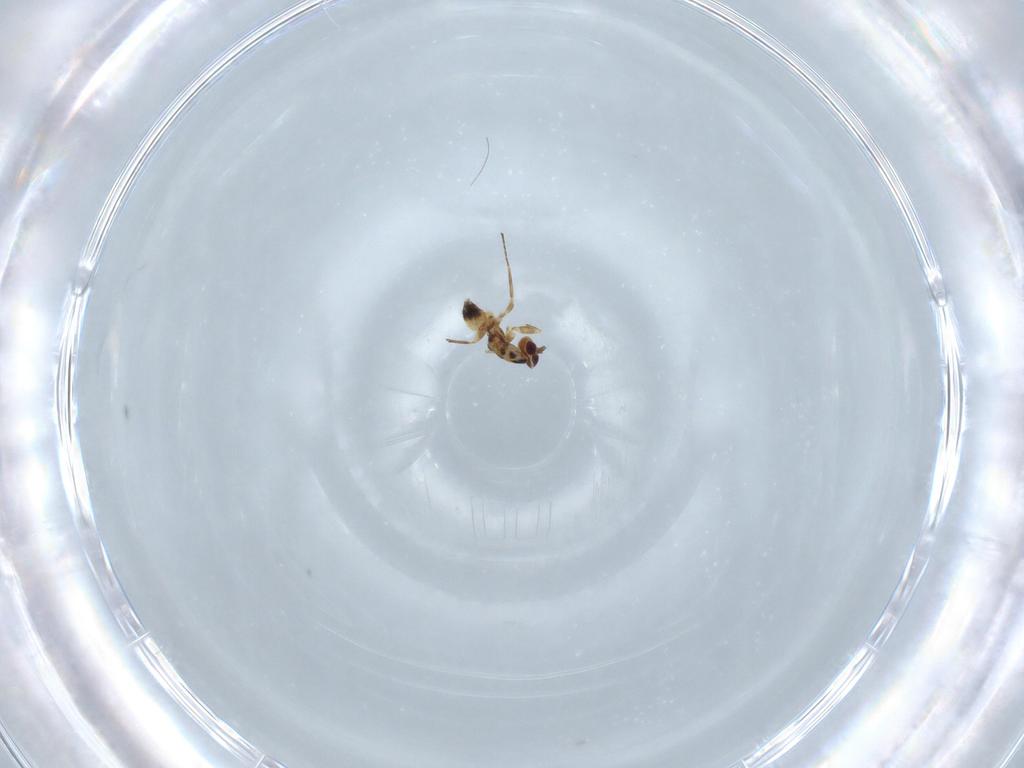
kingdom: Animalia
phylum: Arthropoda
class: Insecta
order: Hymenoptera
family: Mymaridae
